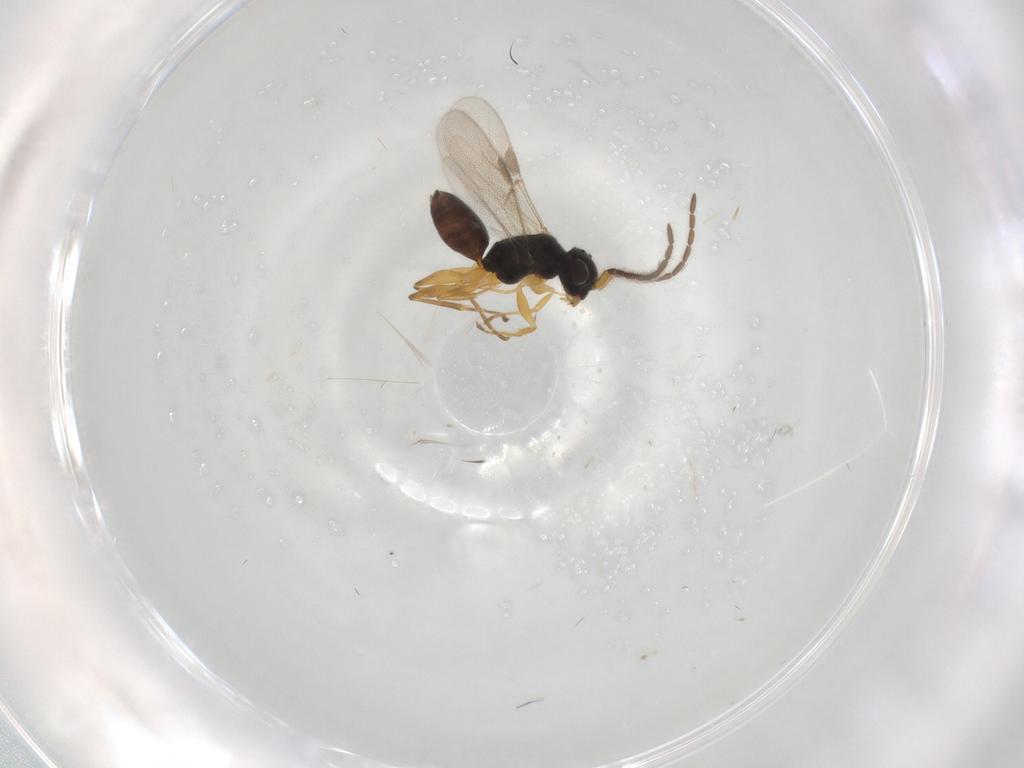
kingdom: Animalia
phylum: Arthropoda
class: Insecta
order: Hymenoptera
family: Dryinidae
